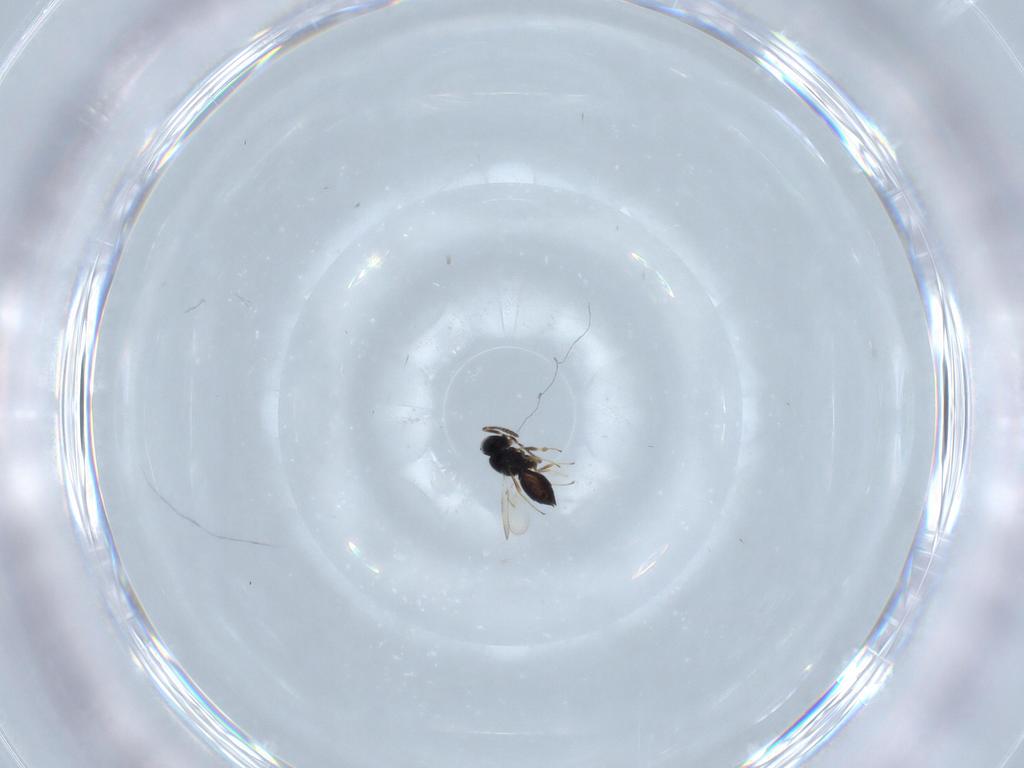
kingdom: Animalia
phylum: Arthropoda
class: Insecta
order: Hymenoptera
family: Scelionidae
